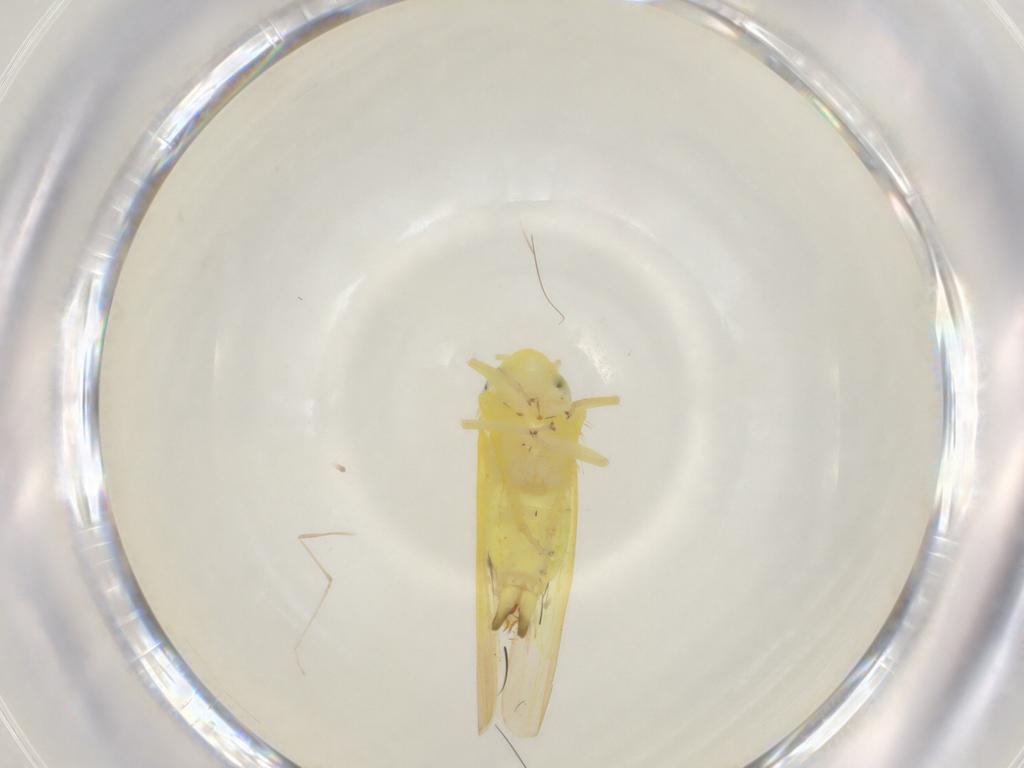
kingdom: Animalia
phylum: Arthropoda
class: Insecta
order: Hemiptera
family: Cicadellidae
